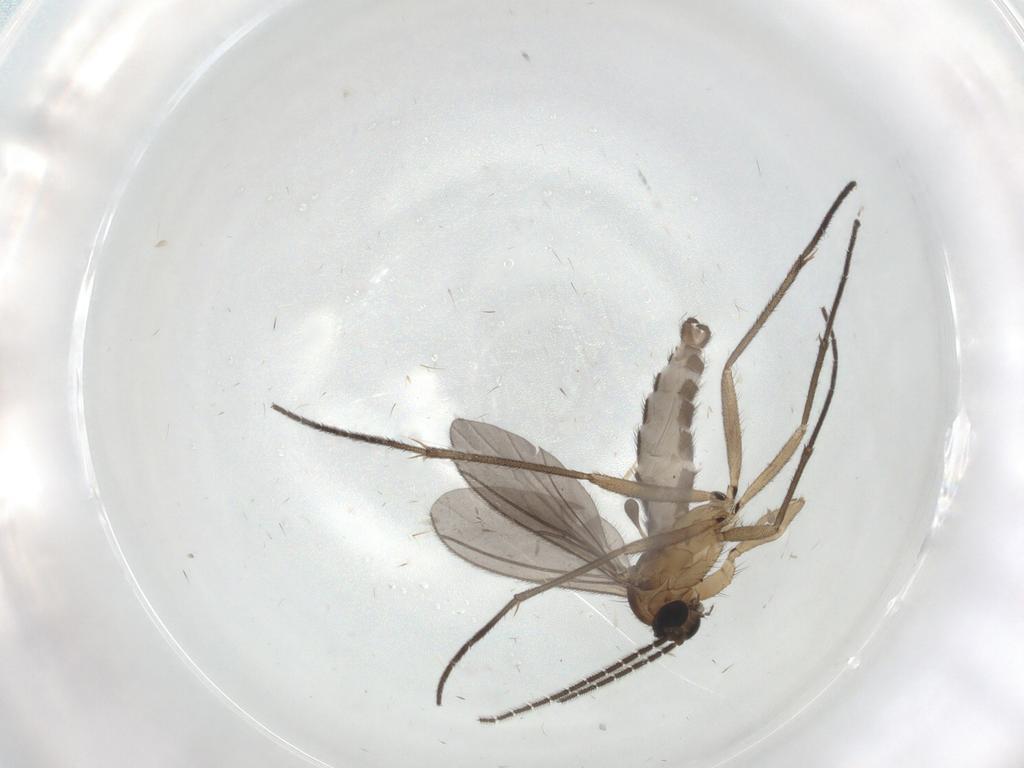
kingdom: Animalia
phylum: Arthropoda
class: Insecta
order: Diptera
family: Sciaridae
